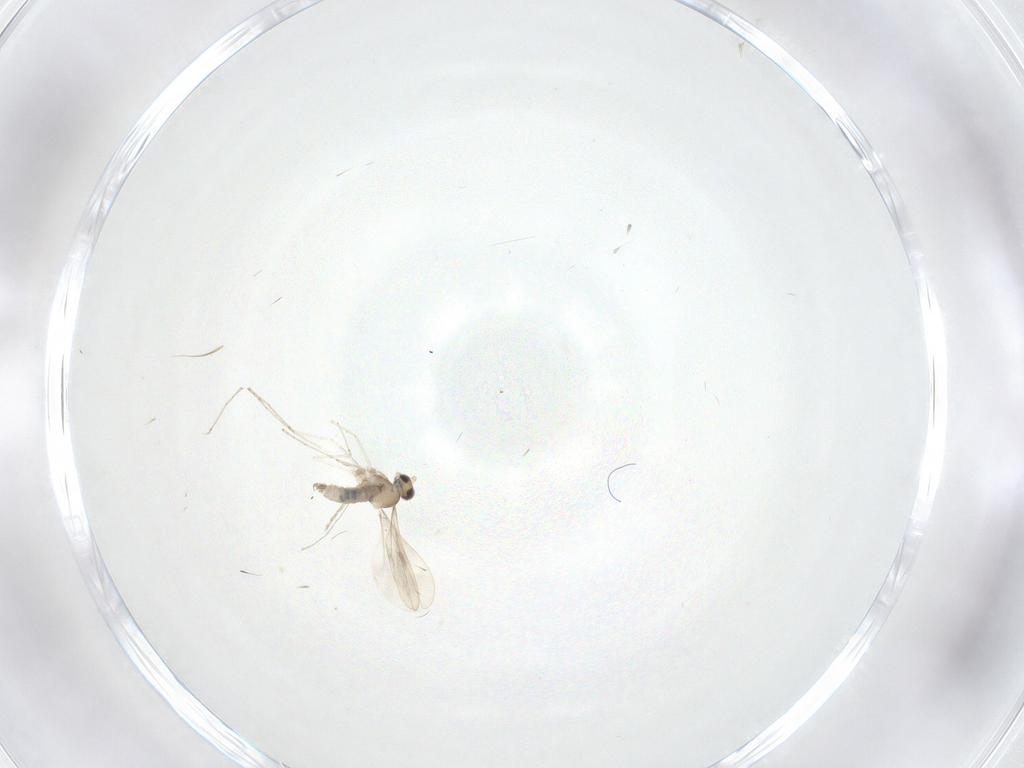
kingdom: Animalia
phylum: Arthropoda
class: Insecta
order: Diptera
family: Chironomidae
